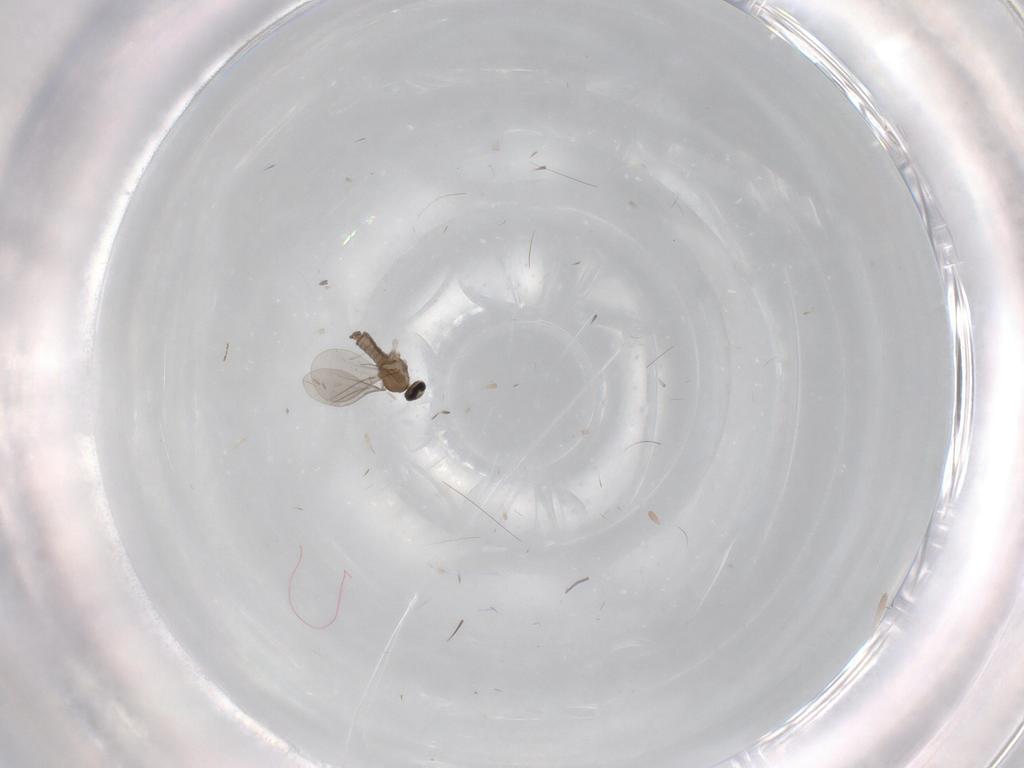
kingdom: Animalia
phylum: Arthropoda
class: Insecta
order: Diptera
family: Cecidomyiidae
